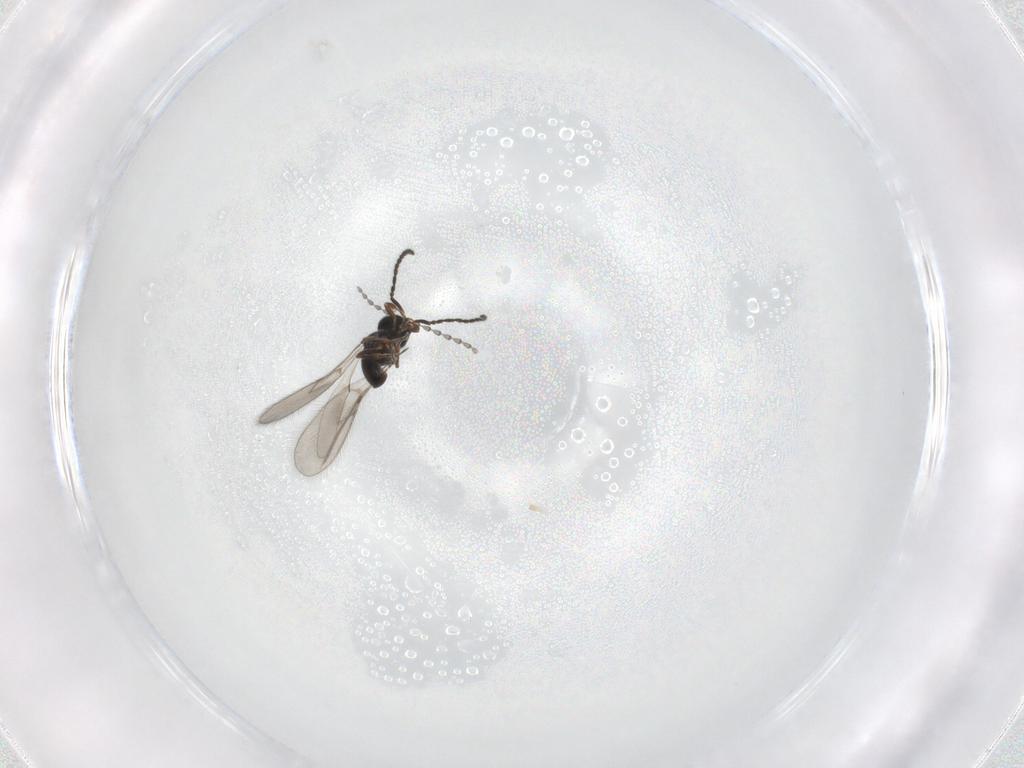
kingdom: Animalia
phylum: Arthropoda
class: Insecta
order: Hymenoptera
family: Scelionidae
